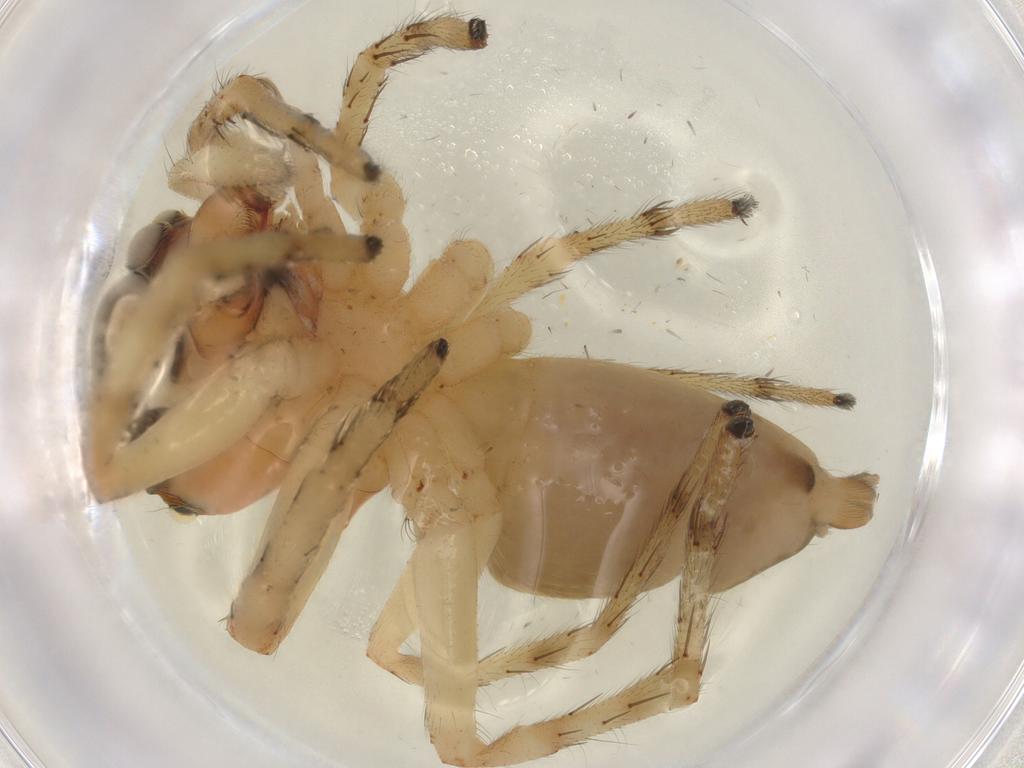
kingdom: Animalia
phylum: Arthropoda
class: Arachnida
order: Araneae
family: Salticidae
